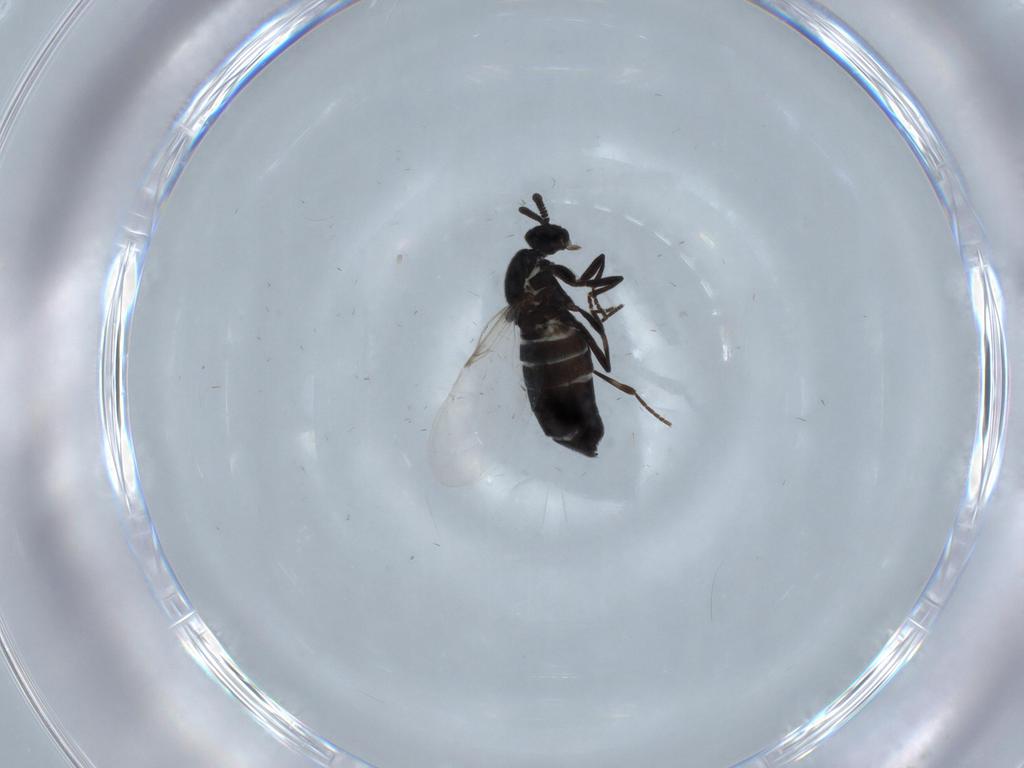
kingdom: Animalia
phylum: Arthropoda
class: Insecta
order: Diptera
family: Scatopsidae
